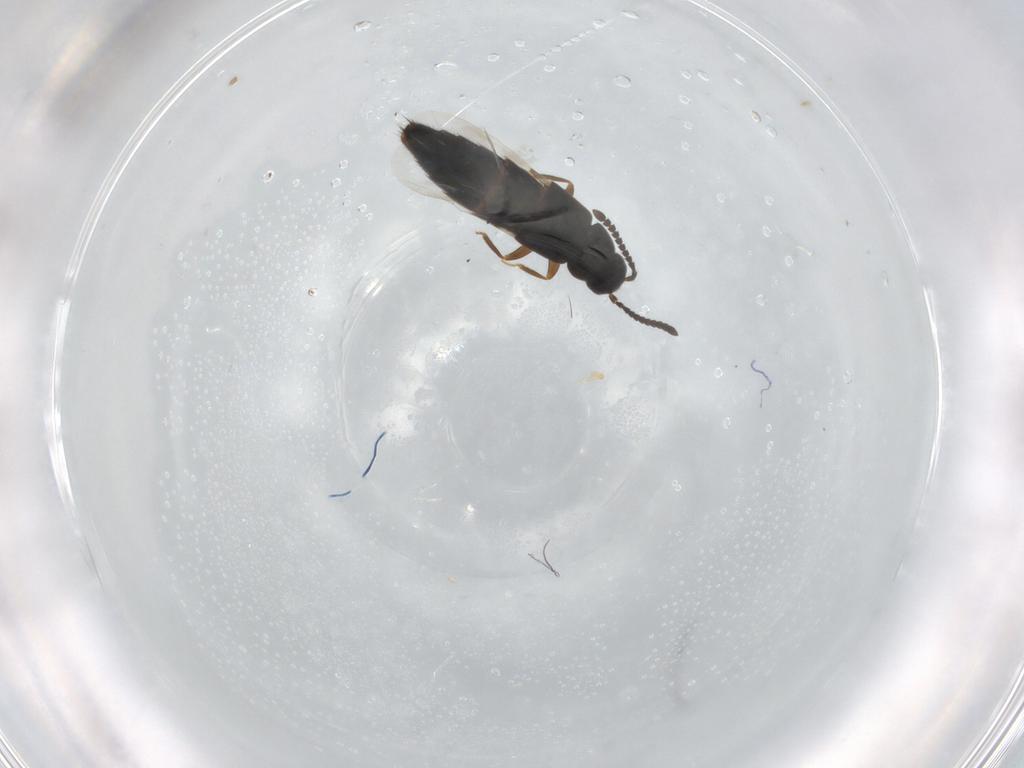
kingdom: Animalia
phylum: Arthropoda
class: Insecta
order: Coleoptera
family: Staphylinidae
